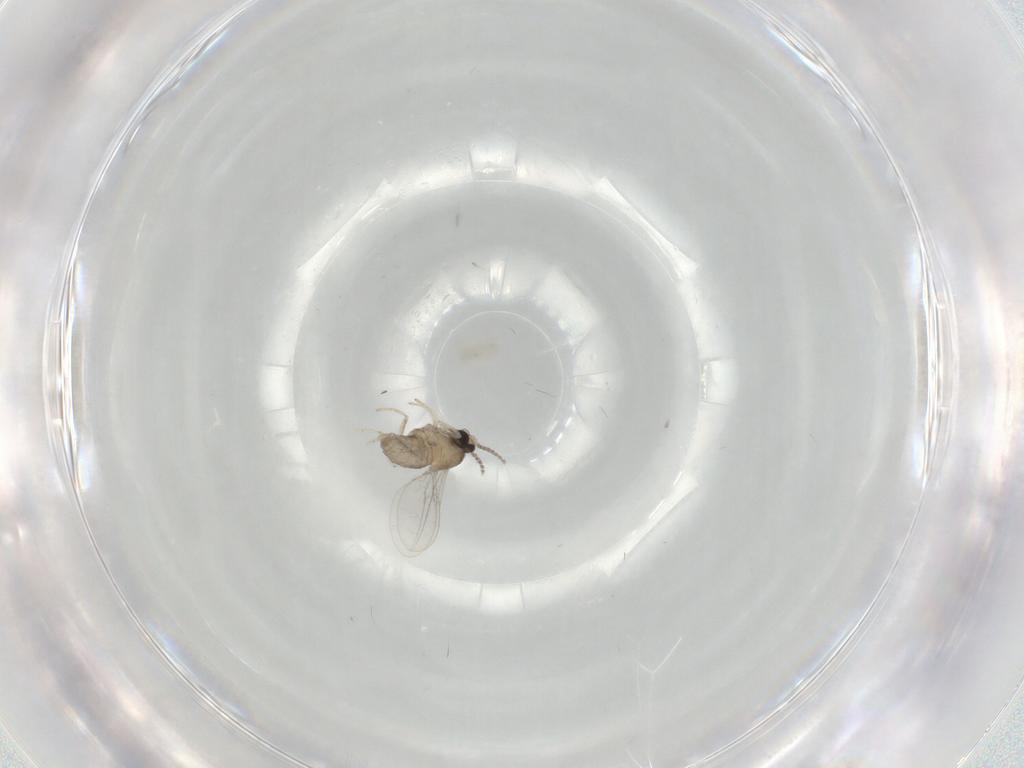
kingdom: Animalia
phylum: Arthropoda
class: Insecta
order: Diptera
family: Cecidomyiidae
